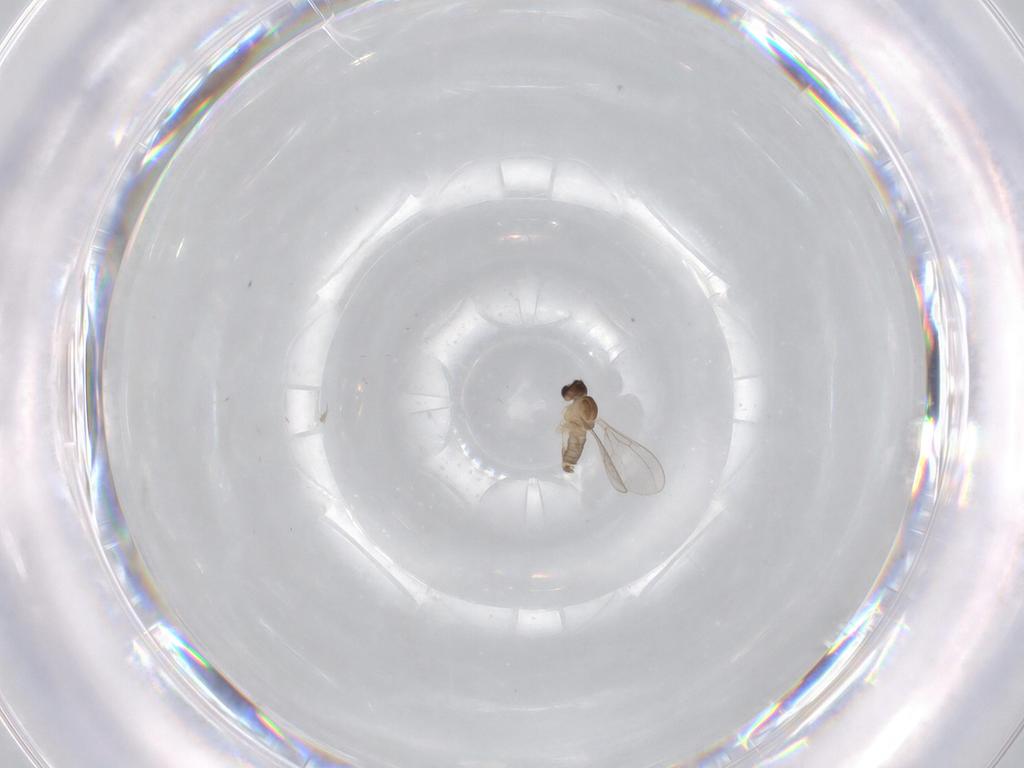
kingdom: Animalia
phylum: Arthropoda
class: Insecta
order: Diptera
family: Cecidomyiidae
